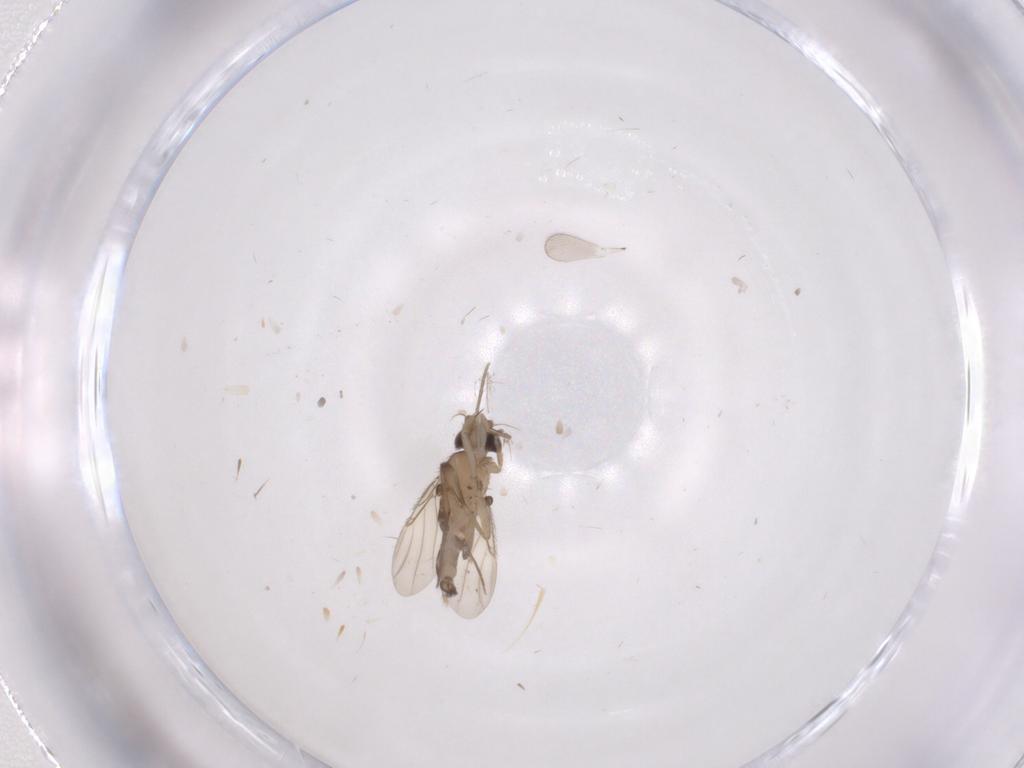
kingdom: Animalia
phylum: Arthropoda
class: Insecta
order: Diptera
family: Phoridae
